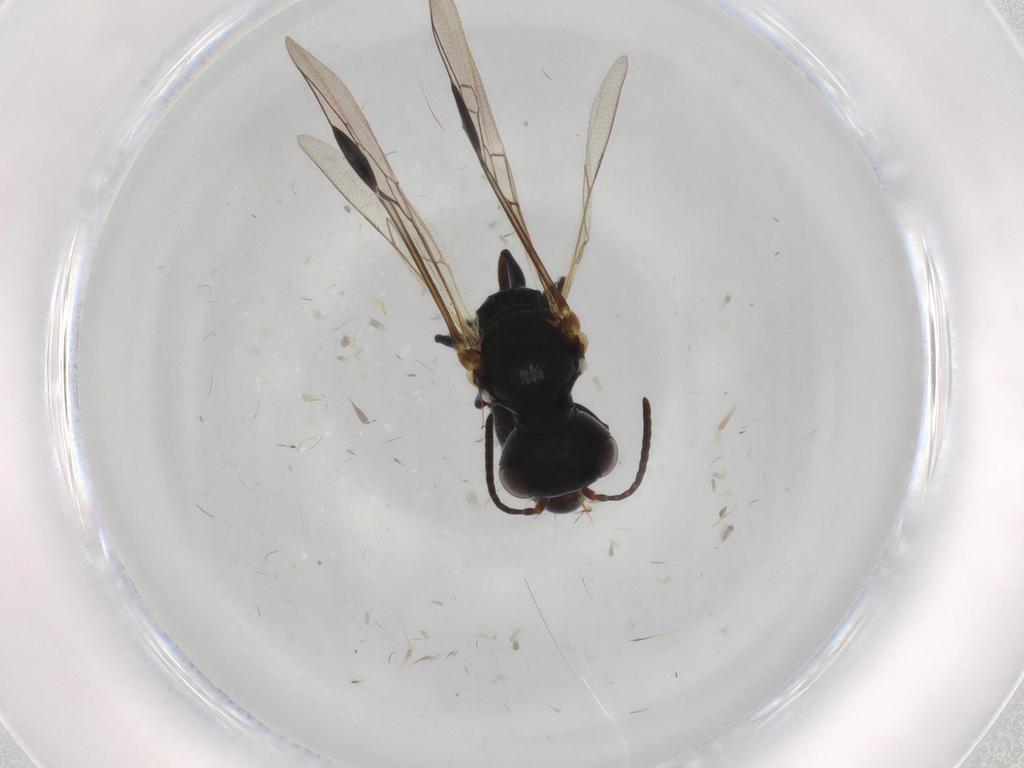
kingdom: Animalia
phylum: Arthropoda
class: Insecta
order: Hymenoptera
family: Pemphredonidae
